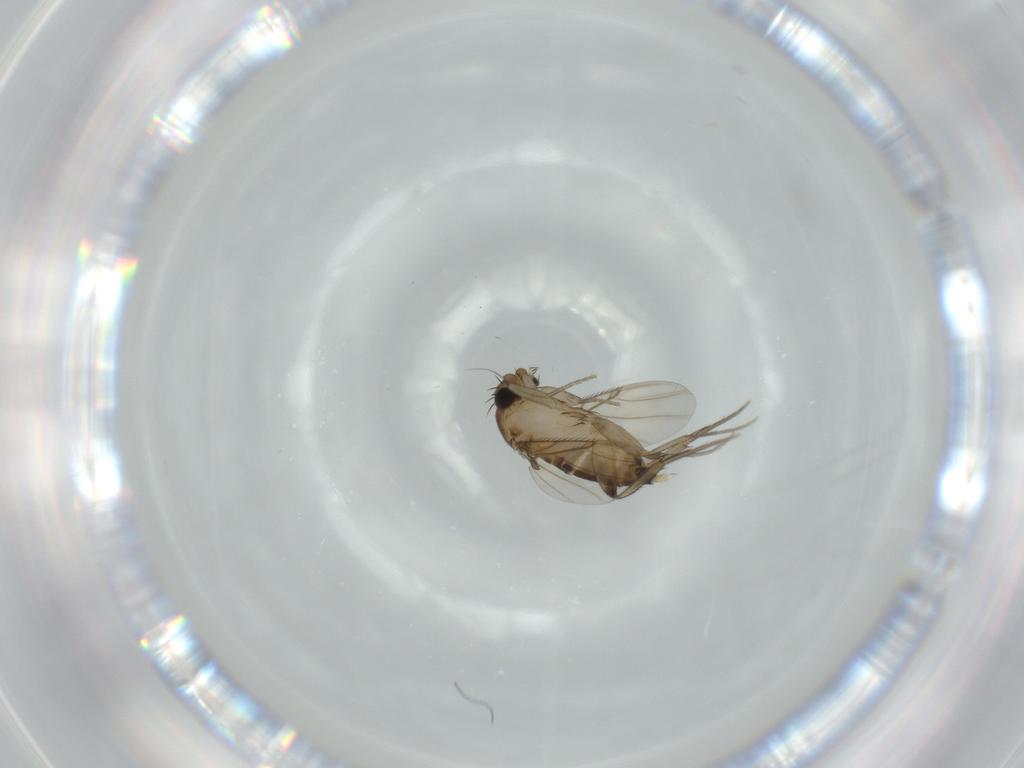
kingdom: Animalia
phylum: Arthropoda
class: Insecta
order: Diptera
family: Phoridae
